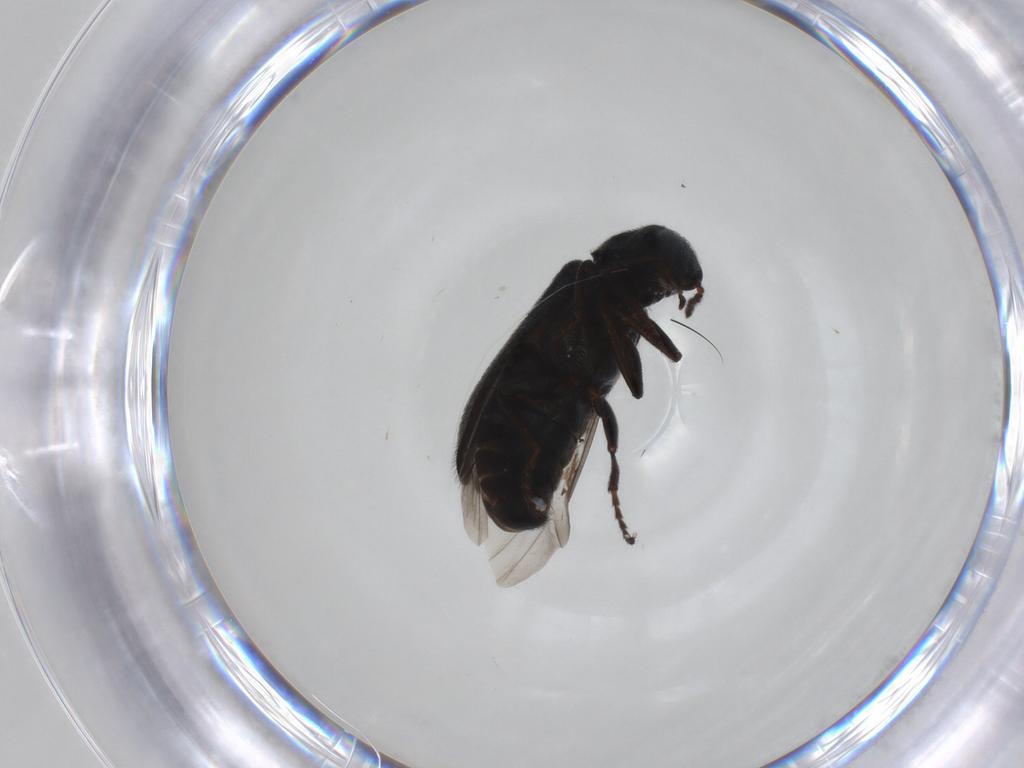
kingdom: Animalia
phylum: Arthropoda
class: Insecta
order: Coleoptera
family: Melyridae
